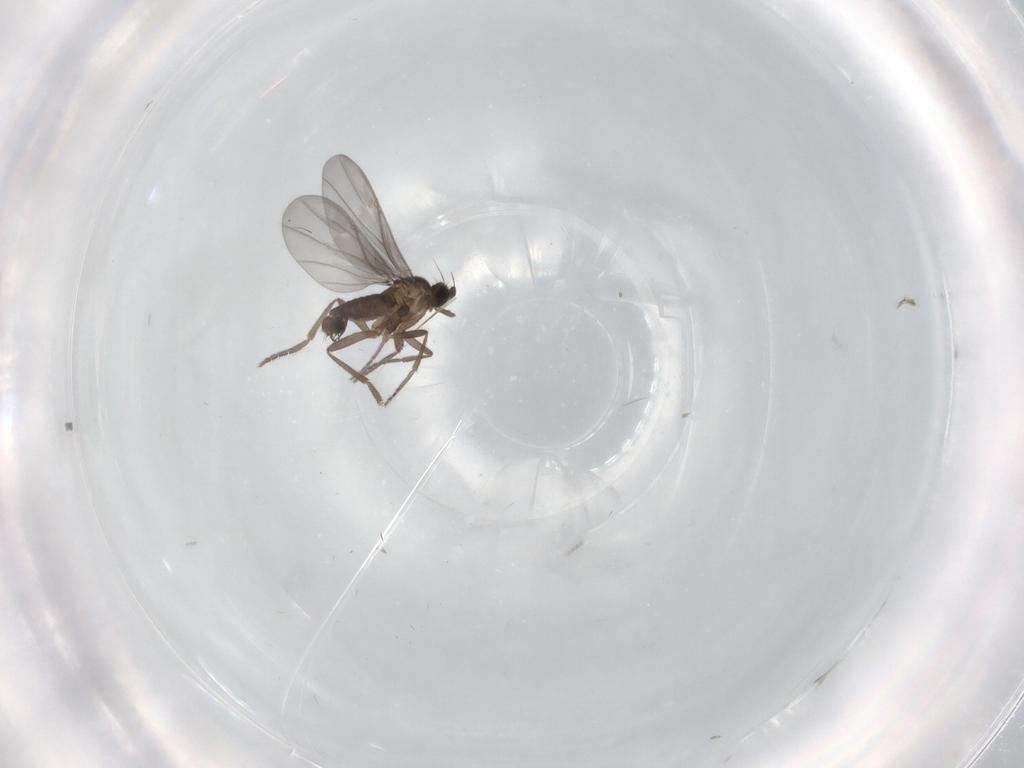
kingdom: Animalia
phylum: Arthropoda
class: Insecta
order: Diptera
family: Phoridae
